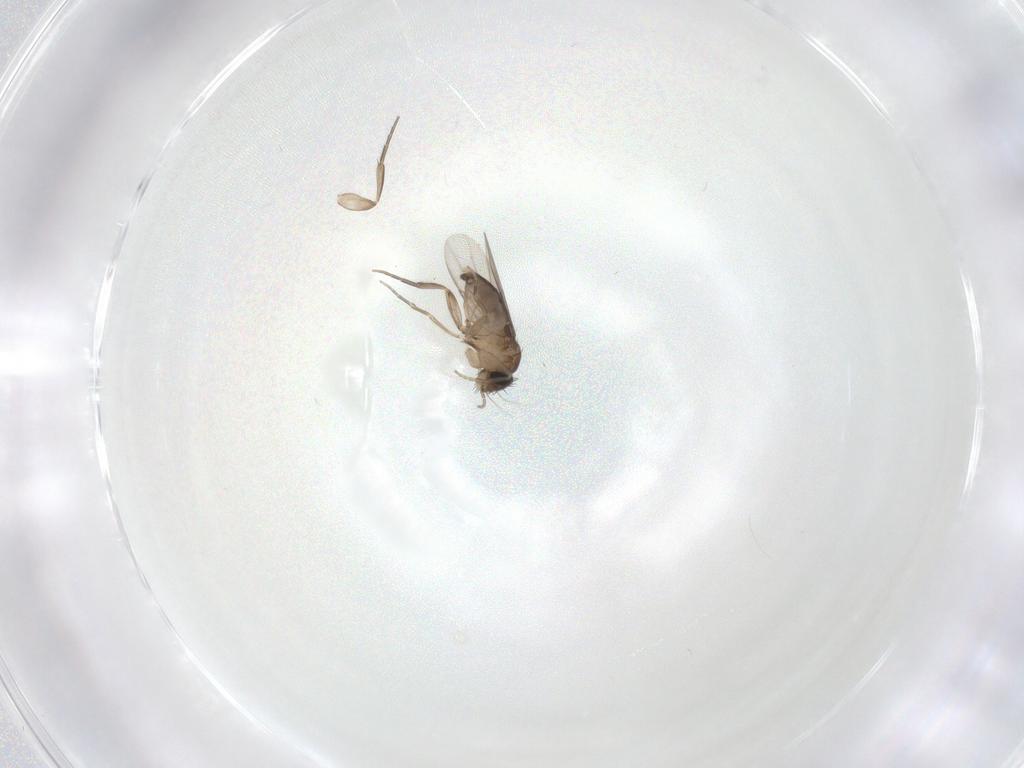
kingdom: Animalia
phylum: Arthropoda
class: Insecta
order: Diptera
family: Phoridae
